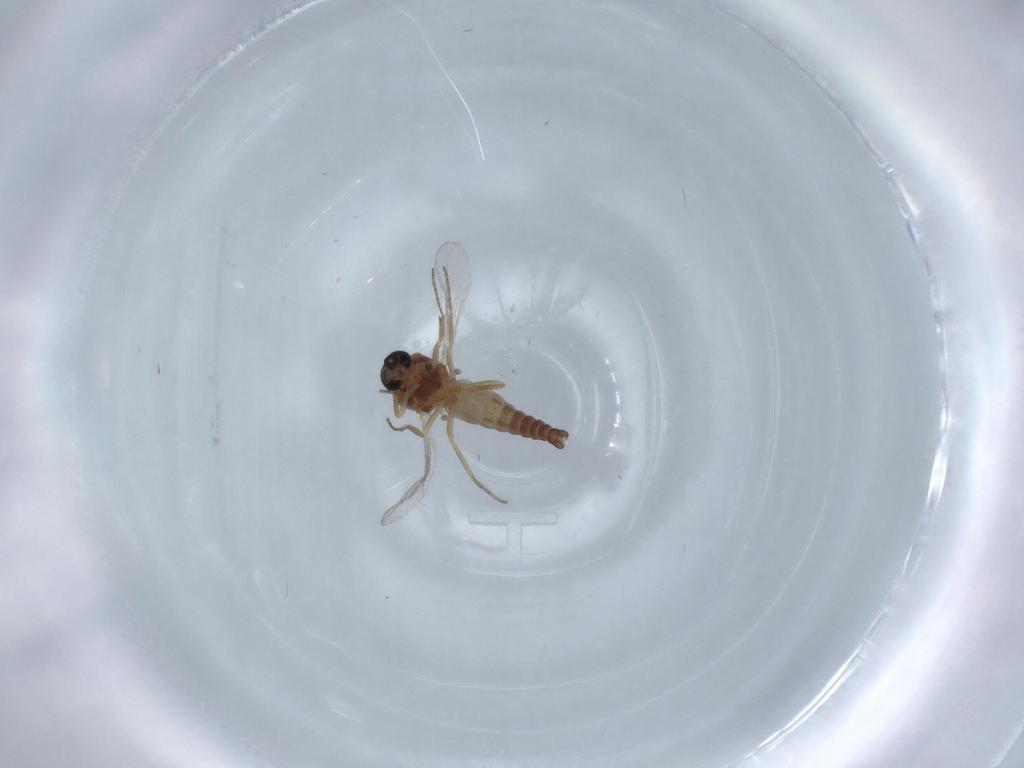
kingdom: Animalia
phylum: Arthropoda
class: Insecta
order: Diptera
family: Ceratopogonidae
